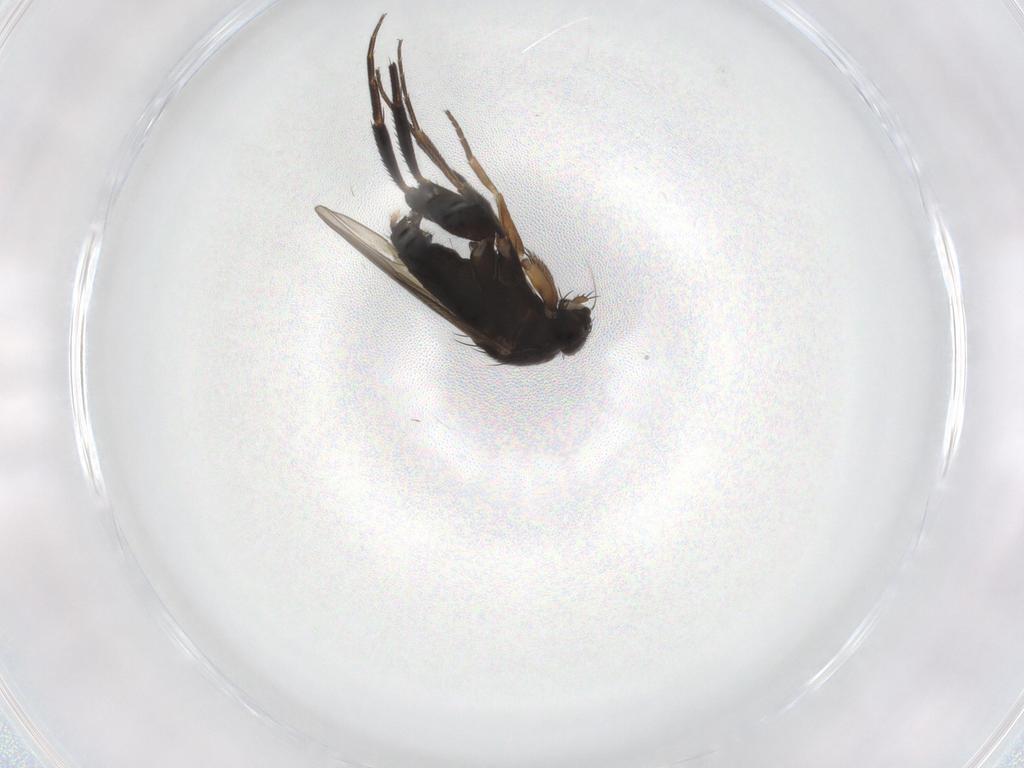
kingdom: Animalia
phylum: Arthropoda
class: Insecta
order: Diptera
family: Phoridae
